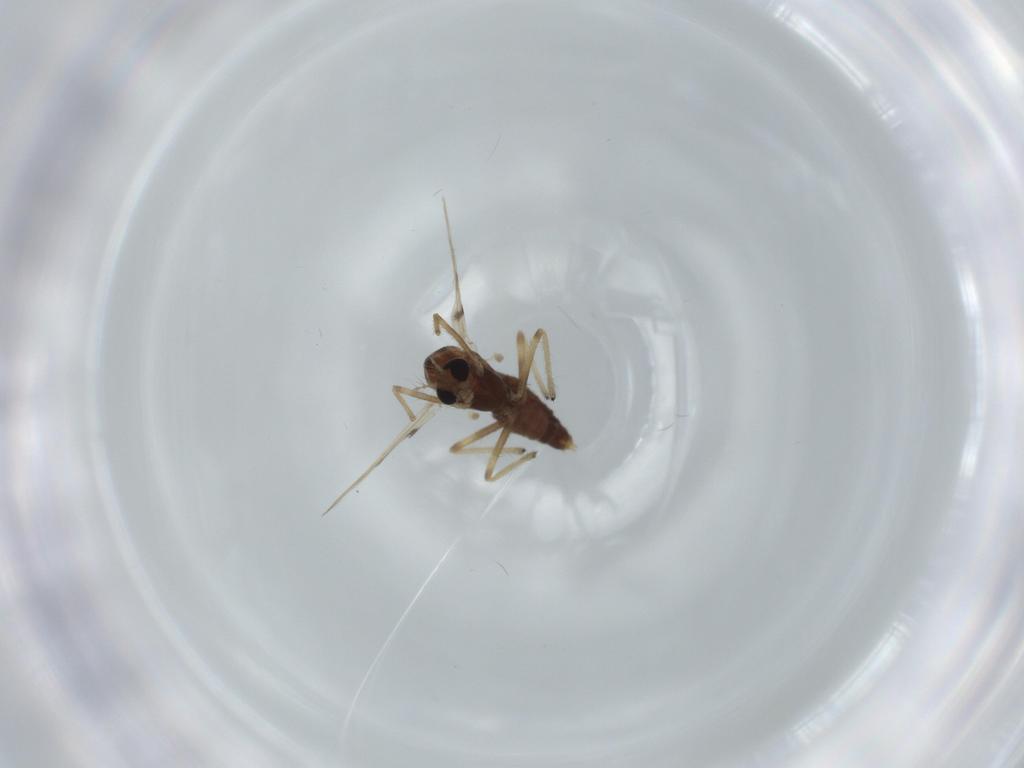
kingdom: Animalia
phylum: Arthropoda
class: Insecta
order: Diptera
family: Chironomidae
